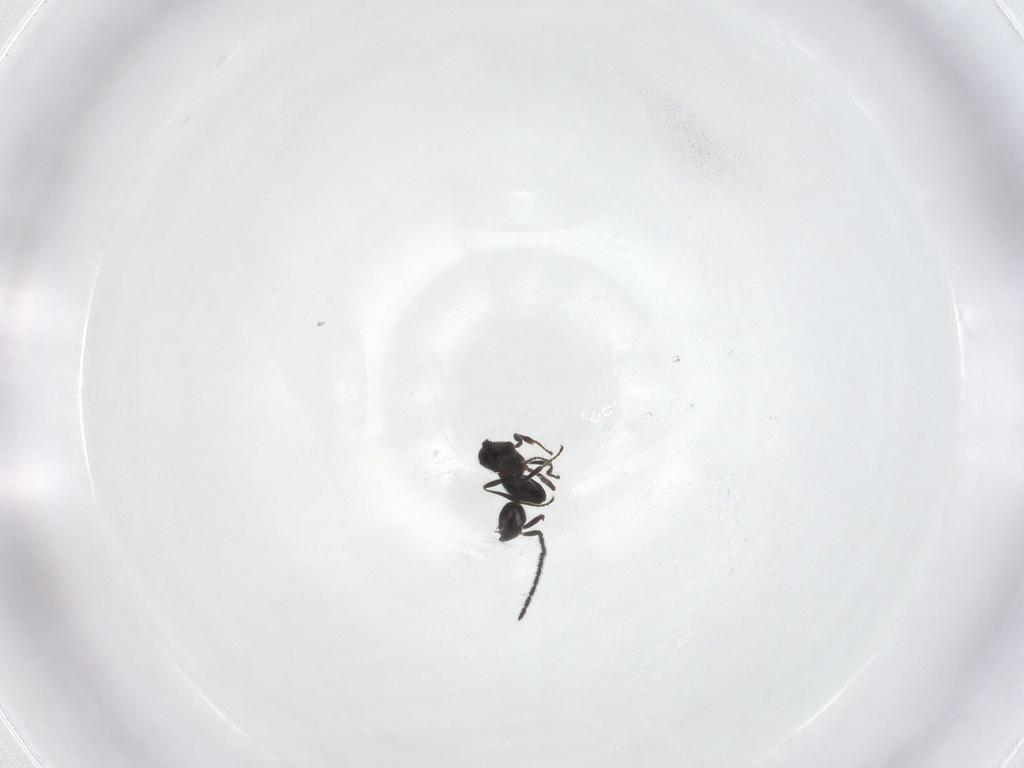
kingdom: Animalia
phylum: Arthropoda
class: Insecta
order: Hymenoptera
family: Scelionidae
